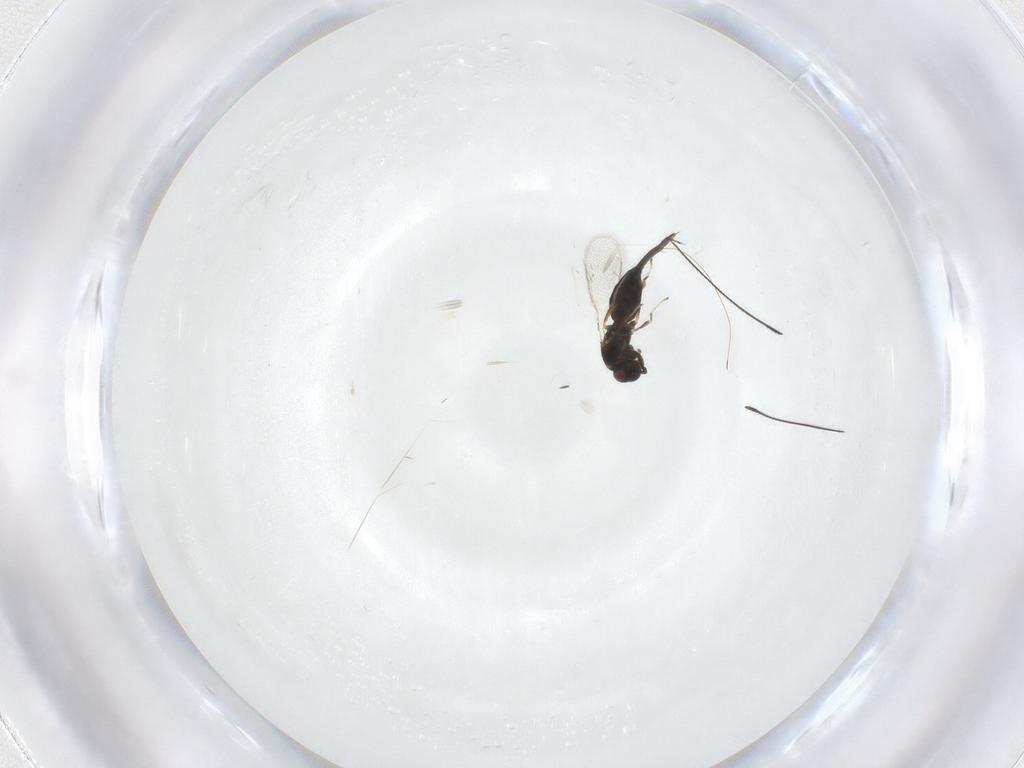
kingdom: Animalia
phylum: Arthropoda
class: Insecta
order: Hymenoptera
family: Pteromalidae
